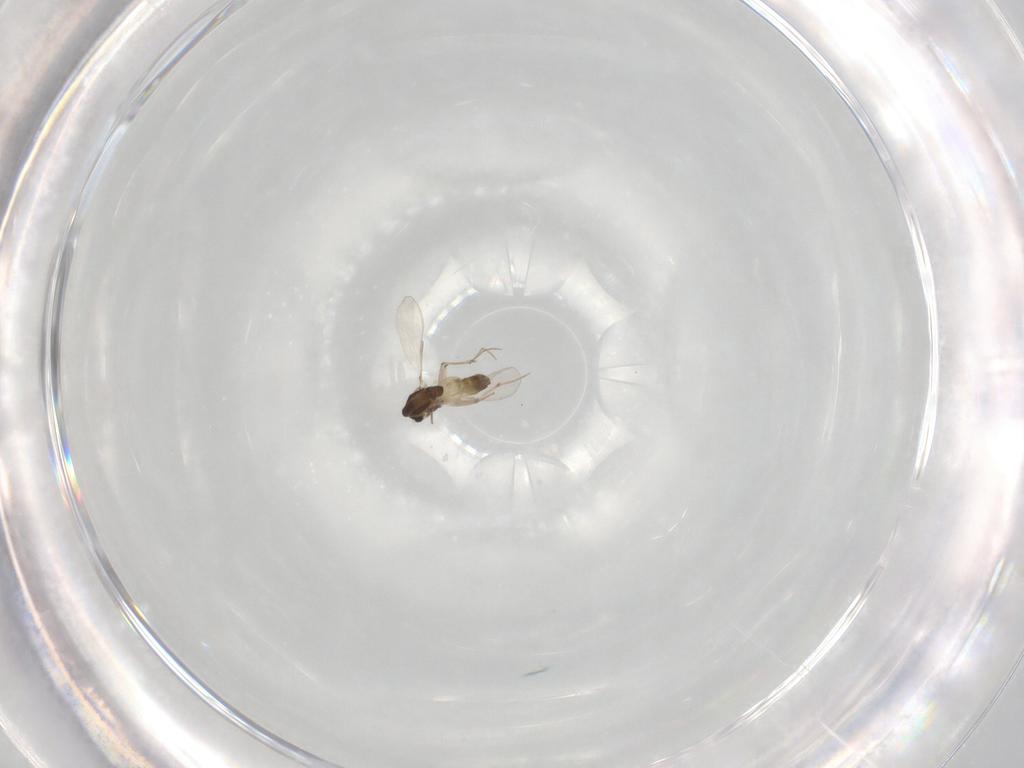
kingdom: Animalia
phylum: Arthropoda
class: Insecta
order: Diptera
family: Chironomidae
